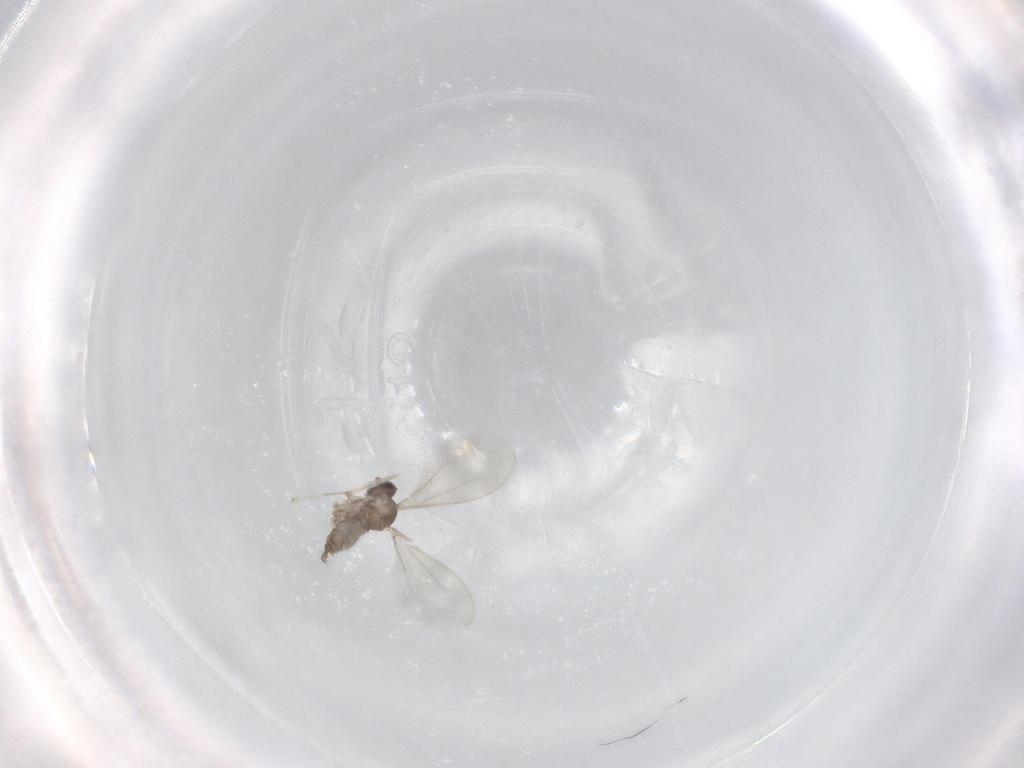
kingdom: Animalia
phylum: Arthropoda
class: Insecta
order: Diptera
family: Cecidomyiidae
